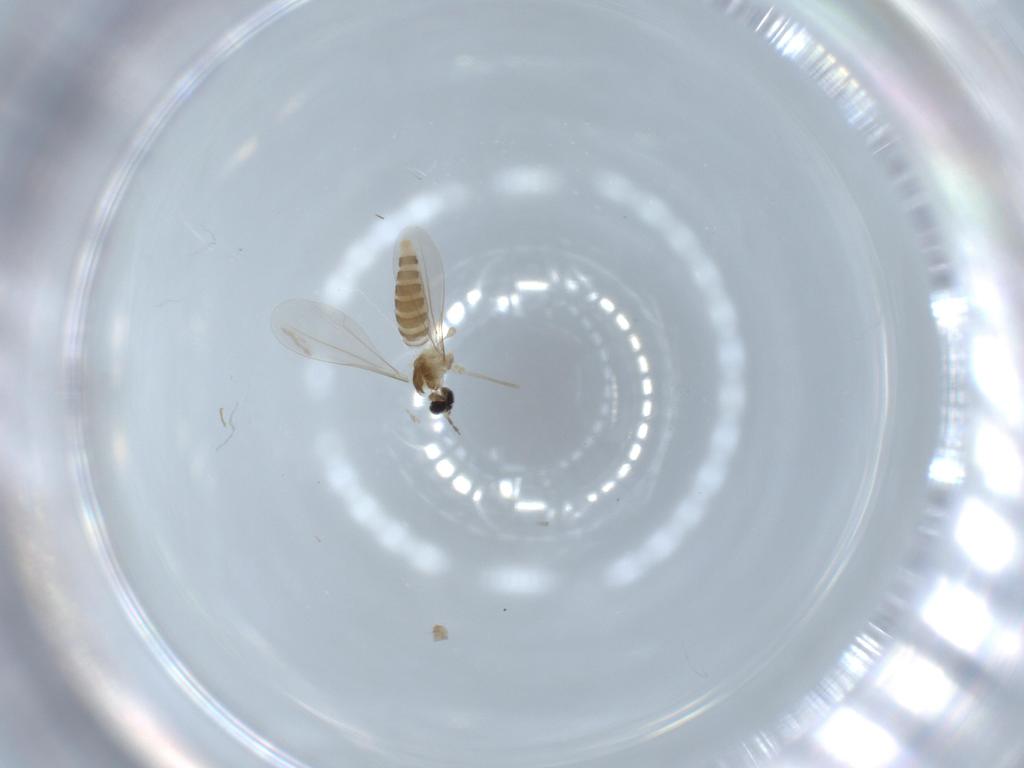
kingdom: Animalia
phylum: Arthropoda
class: Insecta
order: Diptera
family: Cecidomyiidae
